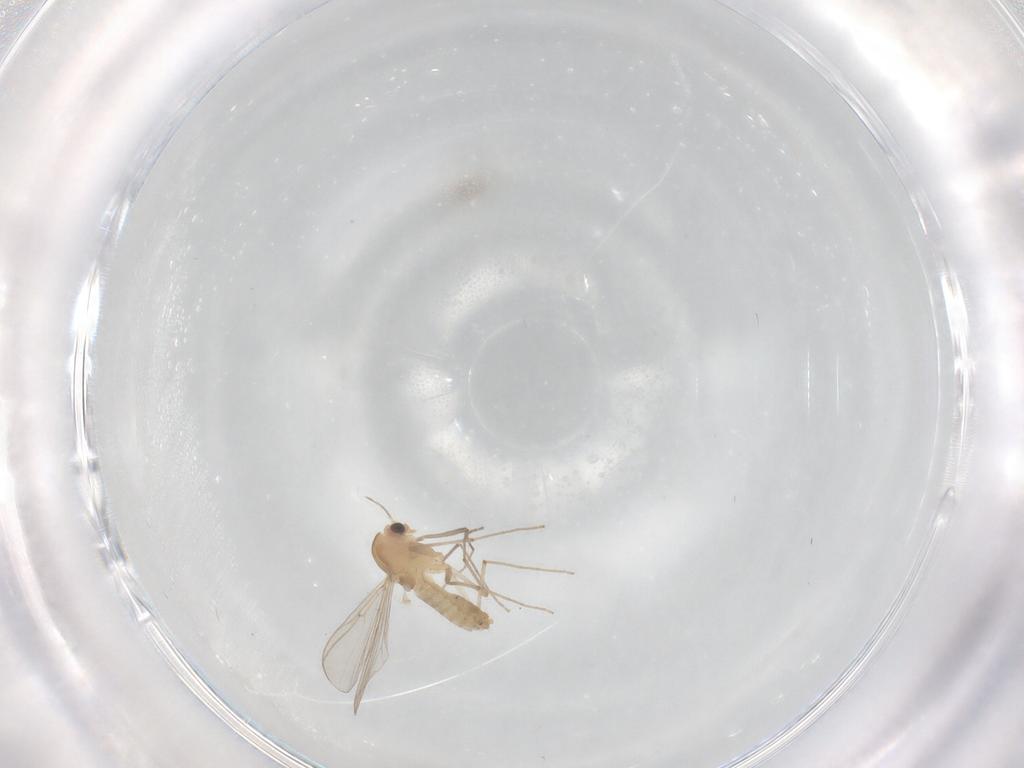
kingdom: Animalia
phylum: Arthropoda
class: Insecta
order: Diptera
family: Chironomidae
